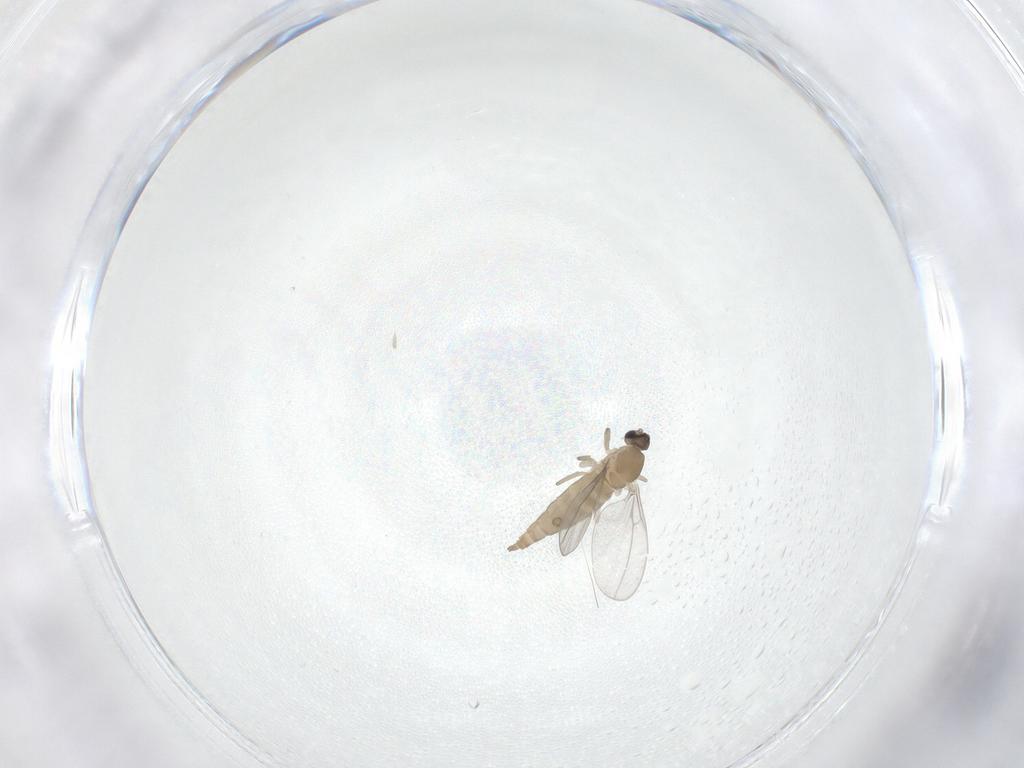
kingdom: Animalia
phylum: Arthropoda
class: Insecta
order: Diptera
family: Cecidomyiidae
